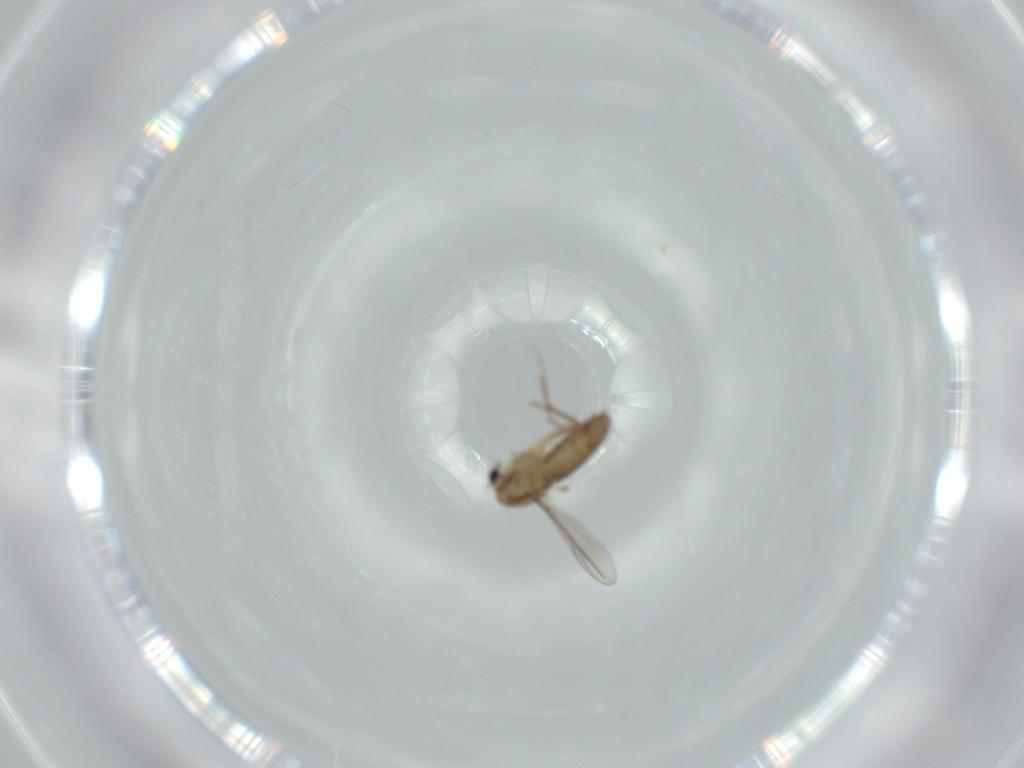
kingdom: Animalia
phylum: Arthropoda
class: Insecta
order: Diptera
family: Chironomidae
